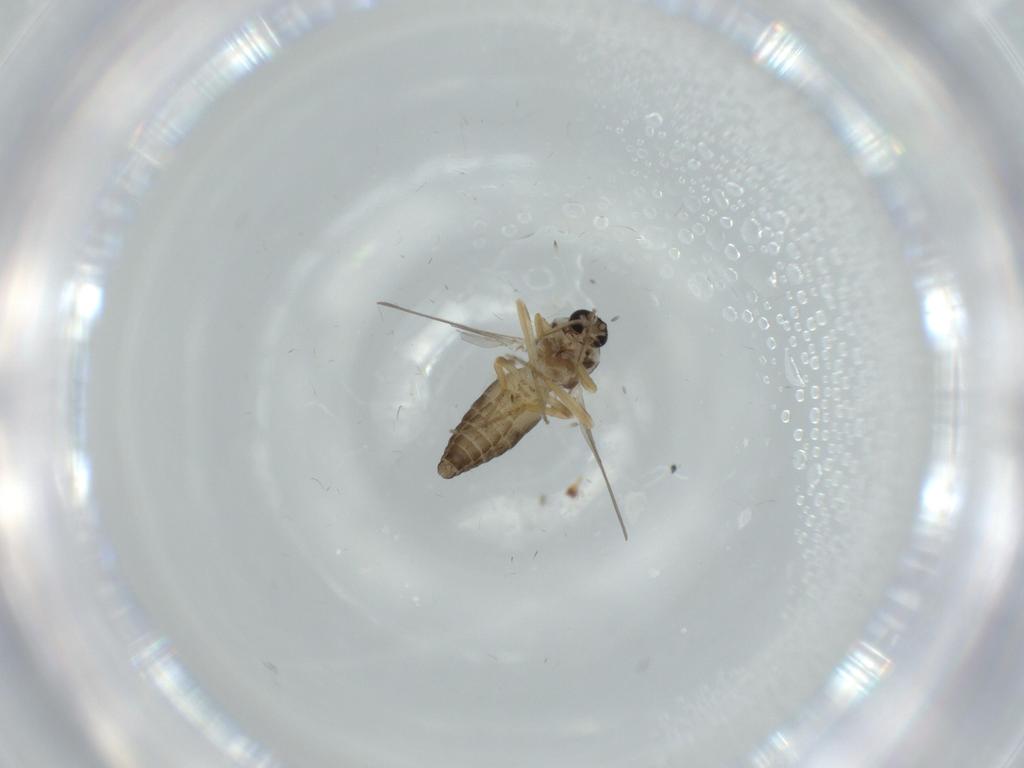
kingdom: Animalia
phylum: Arthropoda
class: Insecta
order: Diptera
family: Ceratopogonidae
